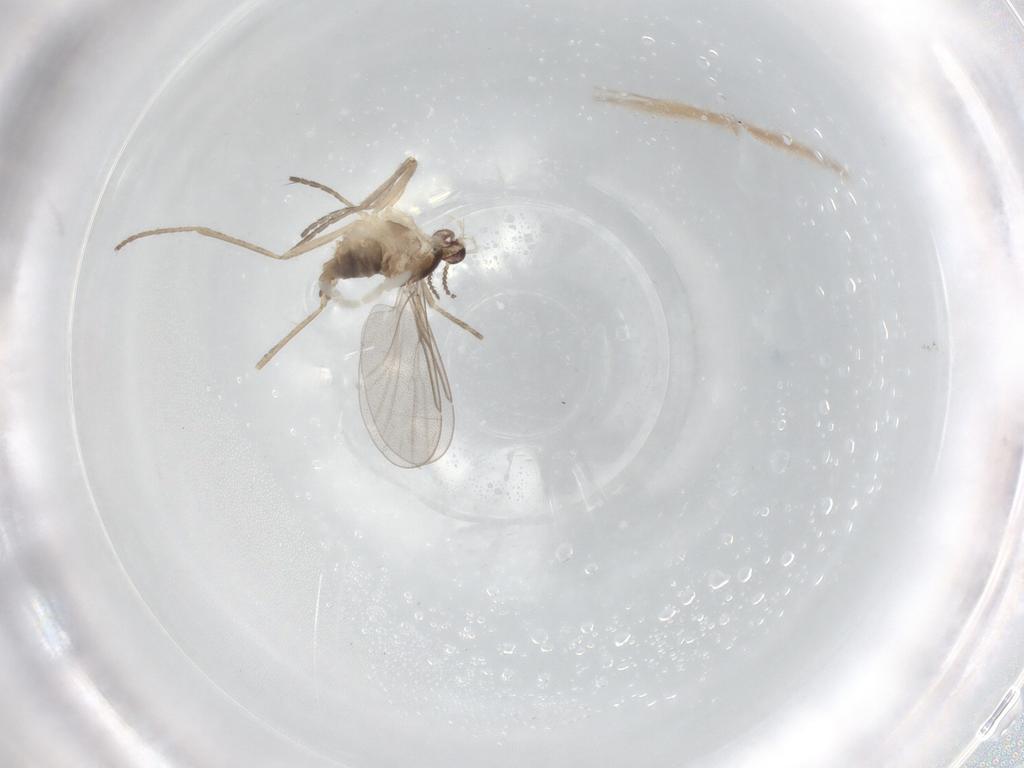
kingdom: Animalia
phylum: Arthropoda
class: Insecta
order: Diptera
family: Cecidomyiidae
